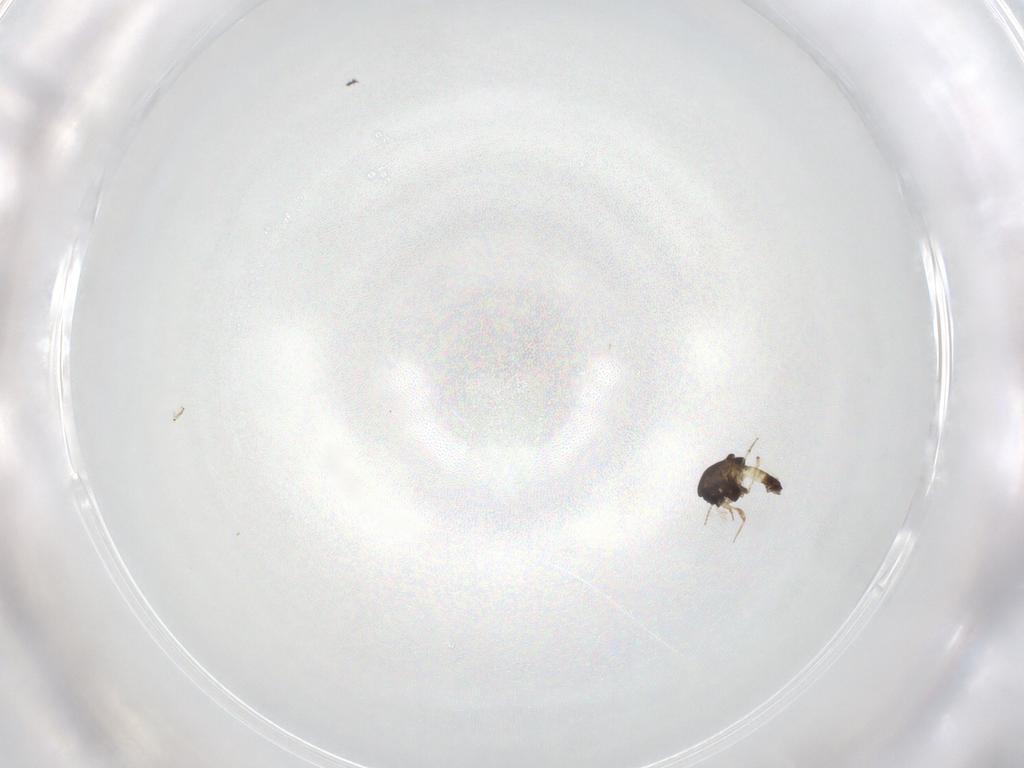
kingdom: Animalia
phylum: Arthropoda
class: Insecta
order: Diptera
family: Chironomidae
